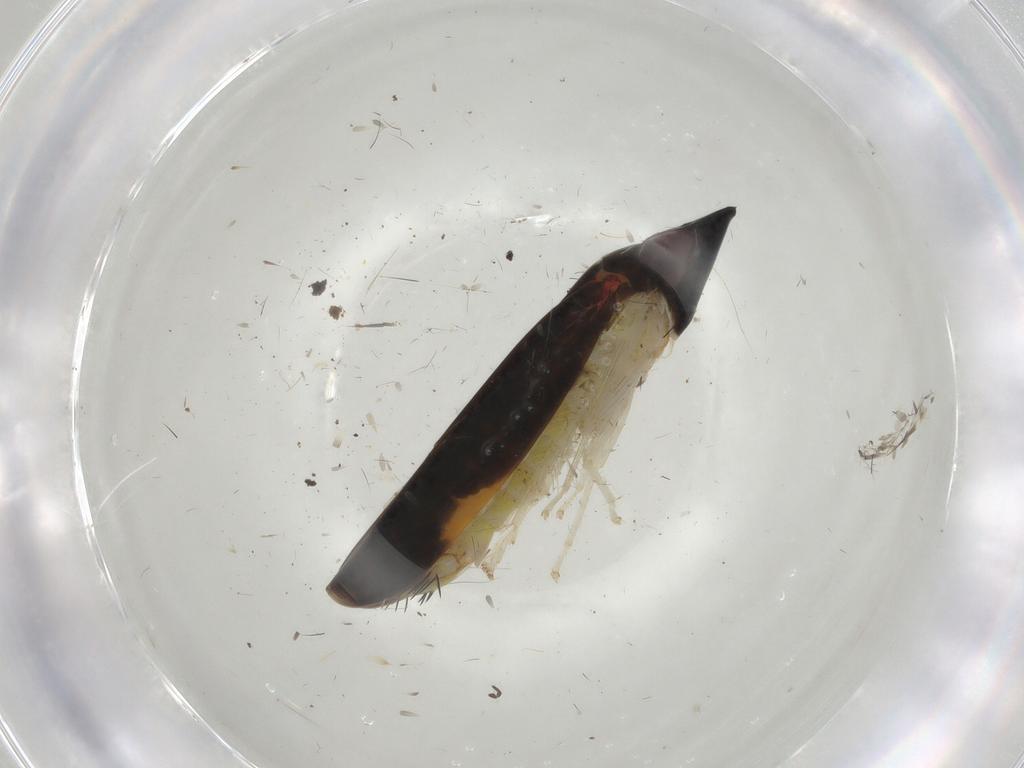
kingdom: Animalia
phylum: Arthropoda
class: Insecta
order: Hemiptera
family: Cicadellidae
